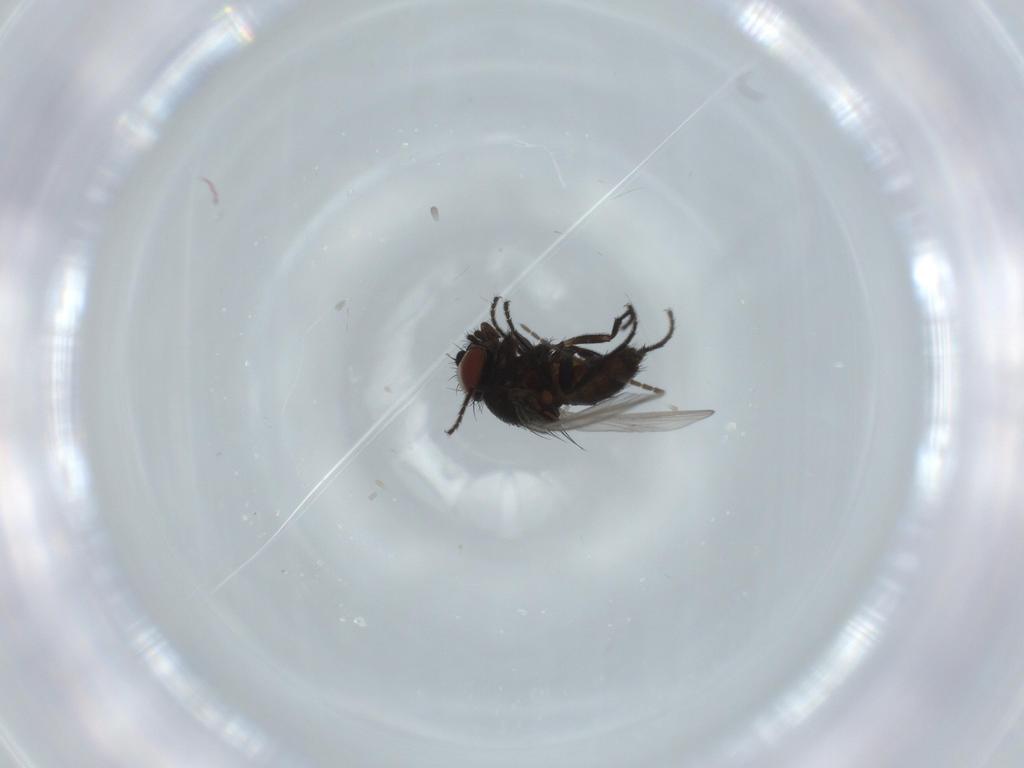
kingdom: Animalia
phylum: Arthropoda
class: Insecta
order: Diptera
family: Sciaridae
